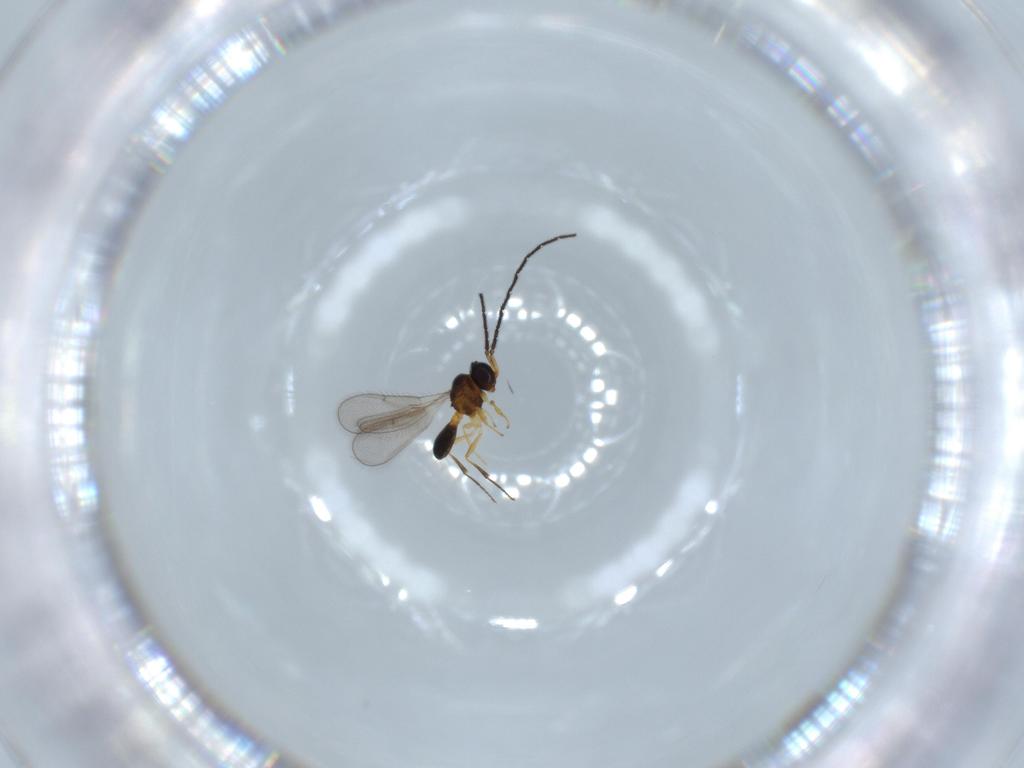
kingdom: Animalia
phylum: Arthropoda
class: Insecta
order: Hymenoptera
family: Scelionidae
